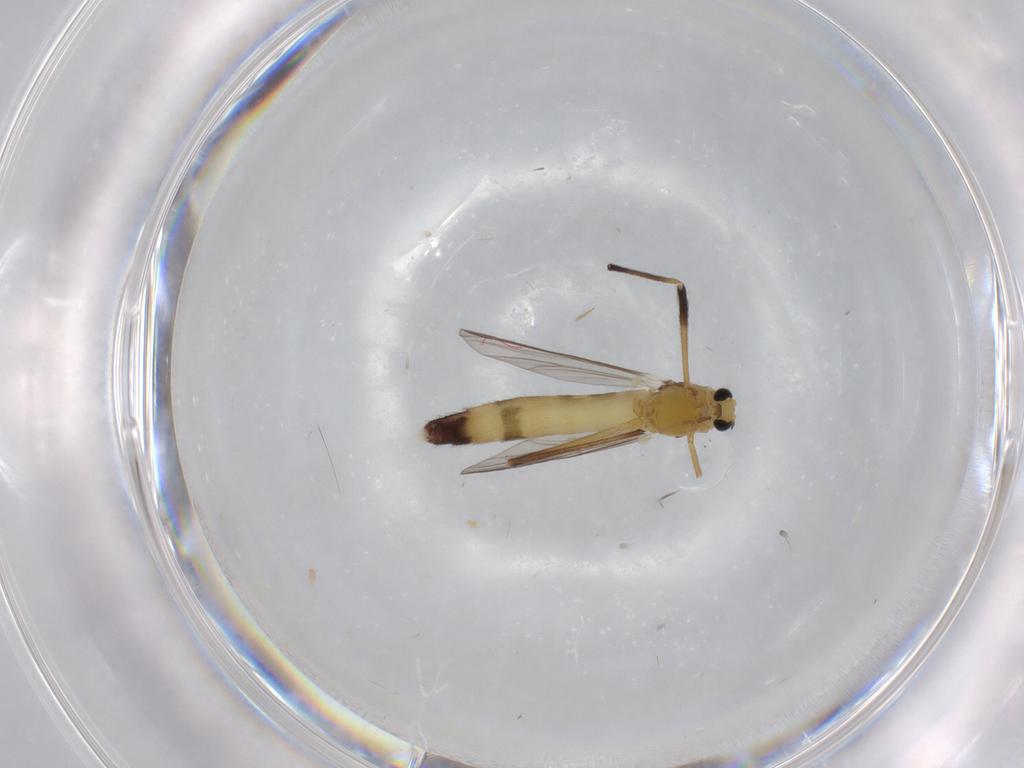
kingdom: Animalia
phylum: Arthropoda
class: Insecta
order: Diptera
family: Chironomidae
